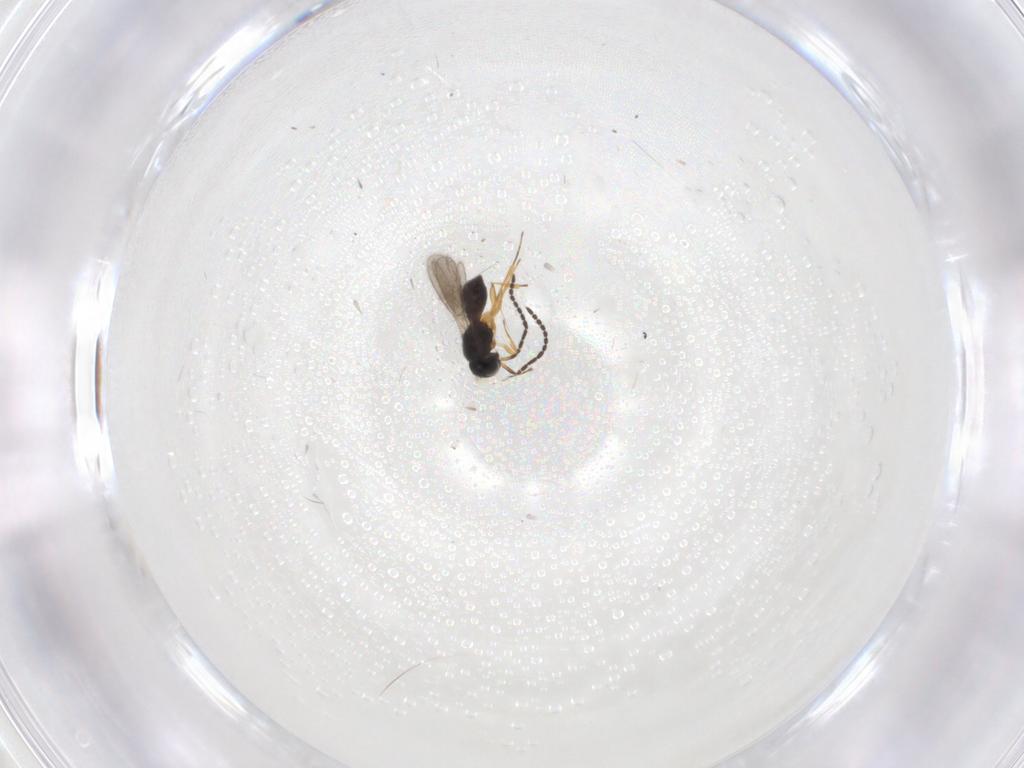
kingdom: Animalia
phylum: Arthropoda
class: Insecta
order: Hymenoptera
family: Scelionidae
